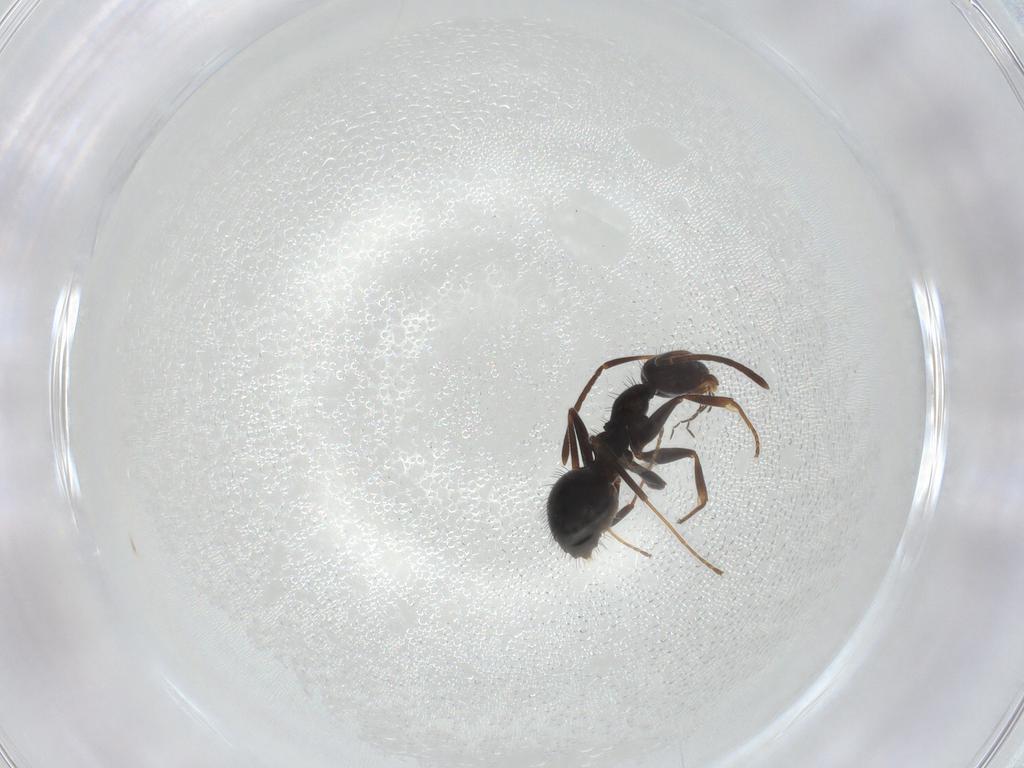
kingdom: Animalia
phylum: Arthropoda
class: Insecta
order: Hymenoptera
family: Formicidae
